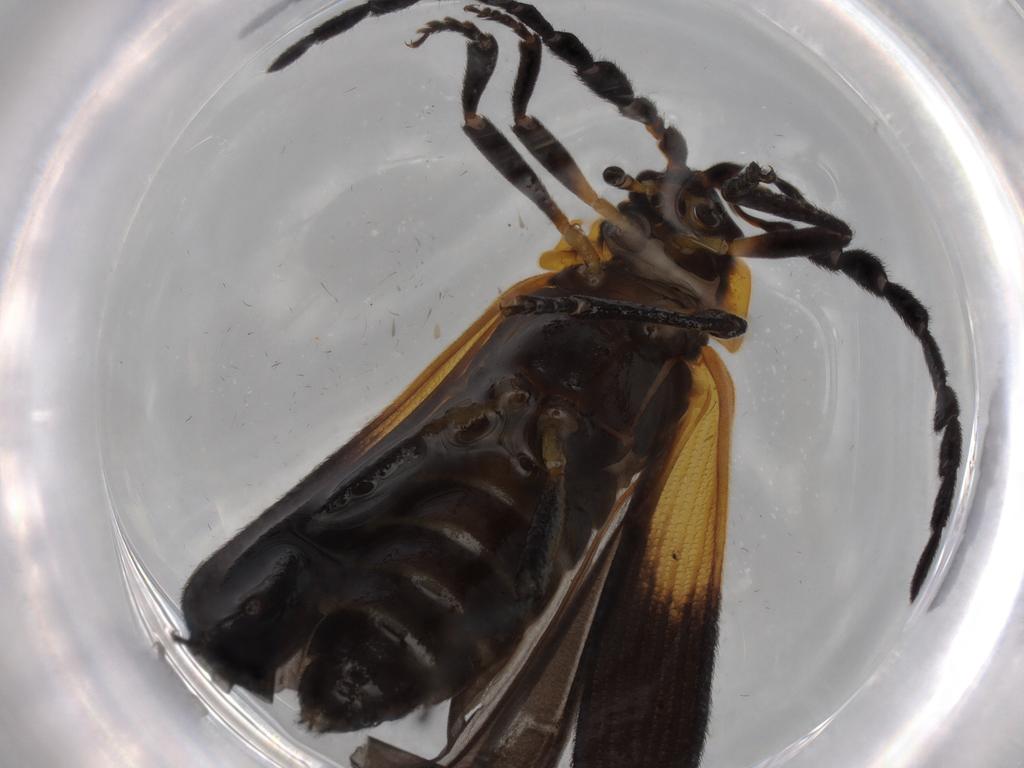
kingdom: Animalia
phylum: Arthropoda
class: Insecta
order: Coleoptera
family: Lycidae
